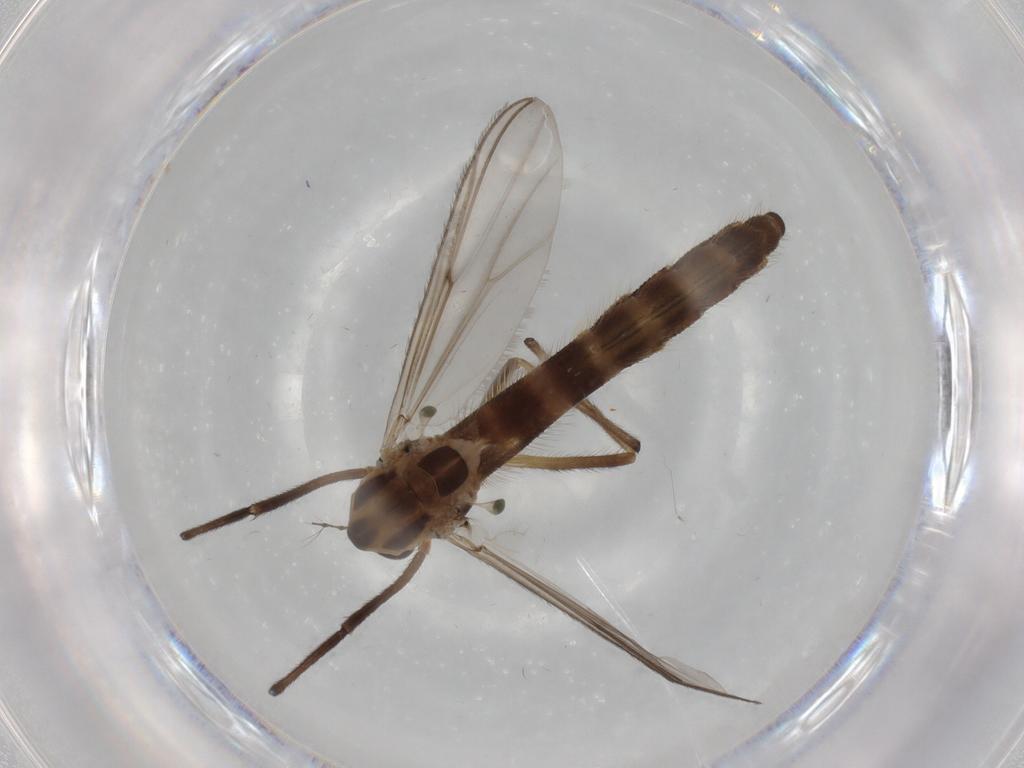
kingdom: Animalia
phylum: Arthropoda
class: Insecta
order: Diptera
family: Chironomidae
